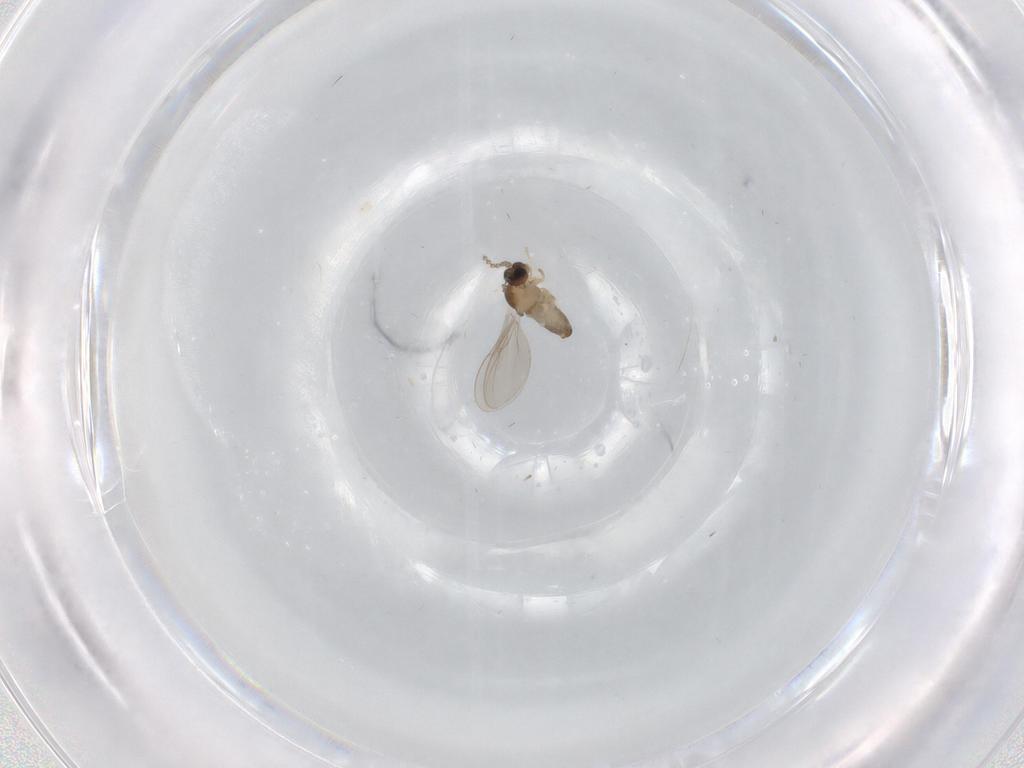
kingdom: Animalia
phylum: Arthropoda
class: Insecta
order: Diptera
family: Cecidomyiidae
